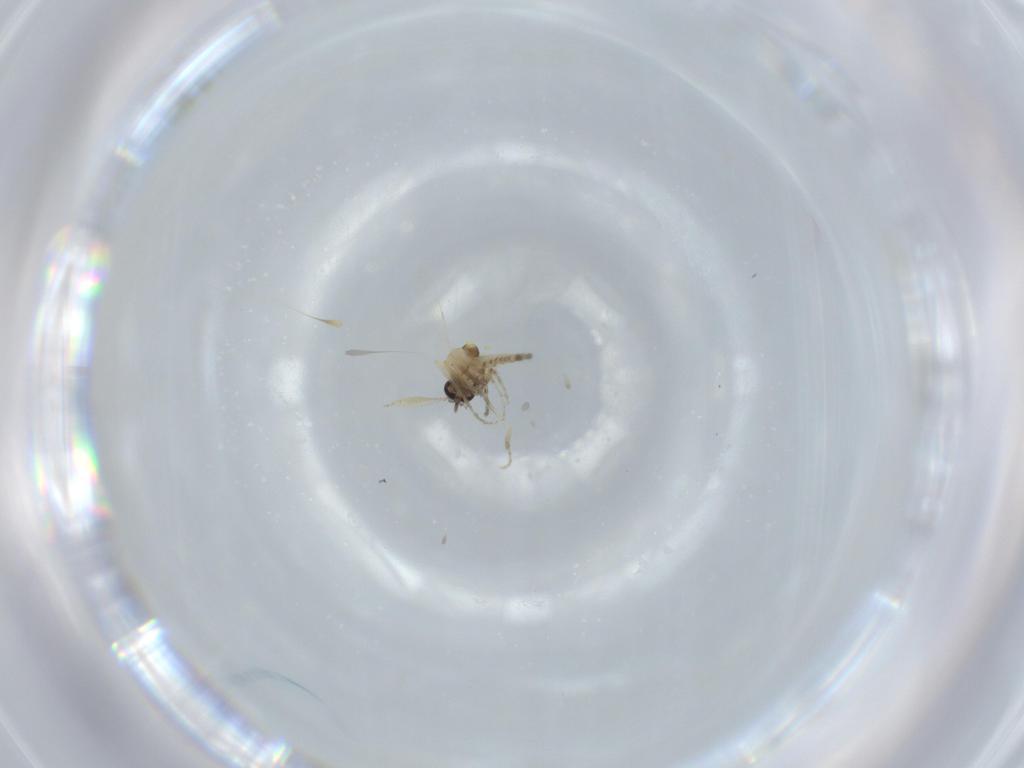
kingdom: Animalia
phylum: Arthropoda
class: Insecta
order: Diptera
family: Ceratopogonidae
